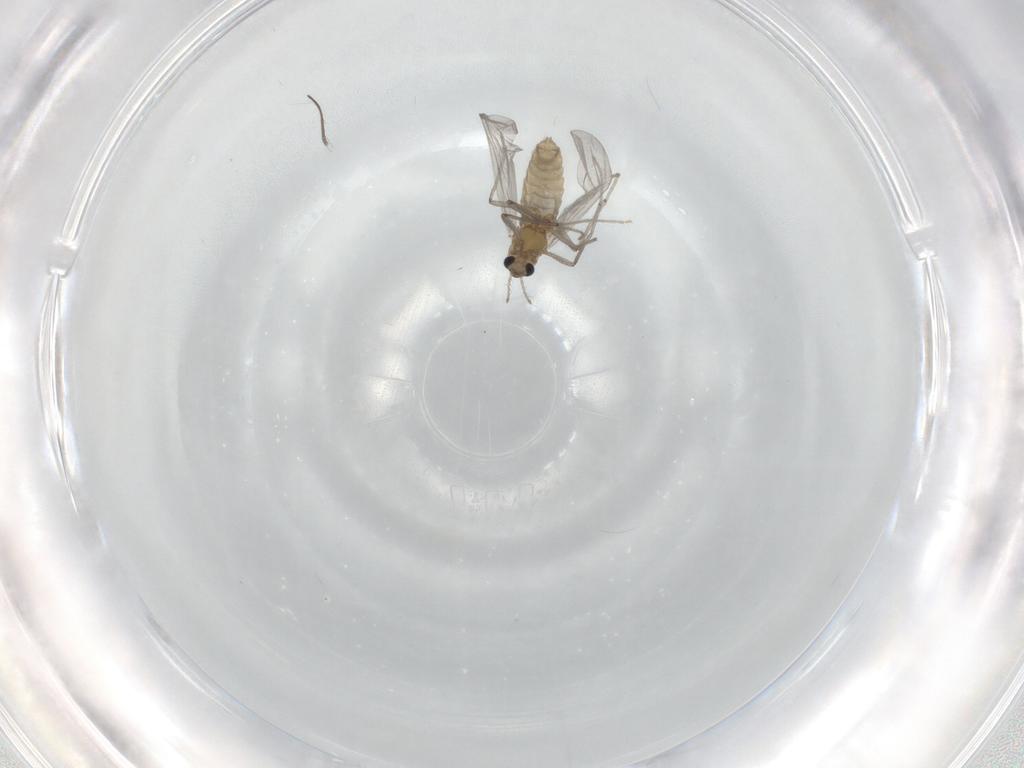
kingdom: Animalia
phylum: Arthropoda
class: Insecta
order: Diptera
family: Chironomidae
